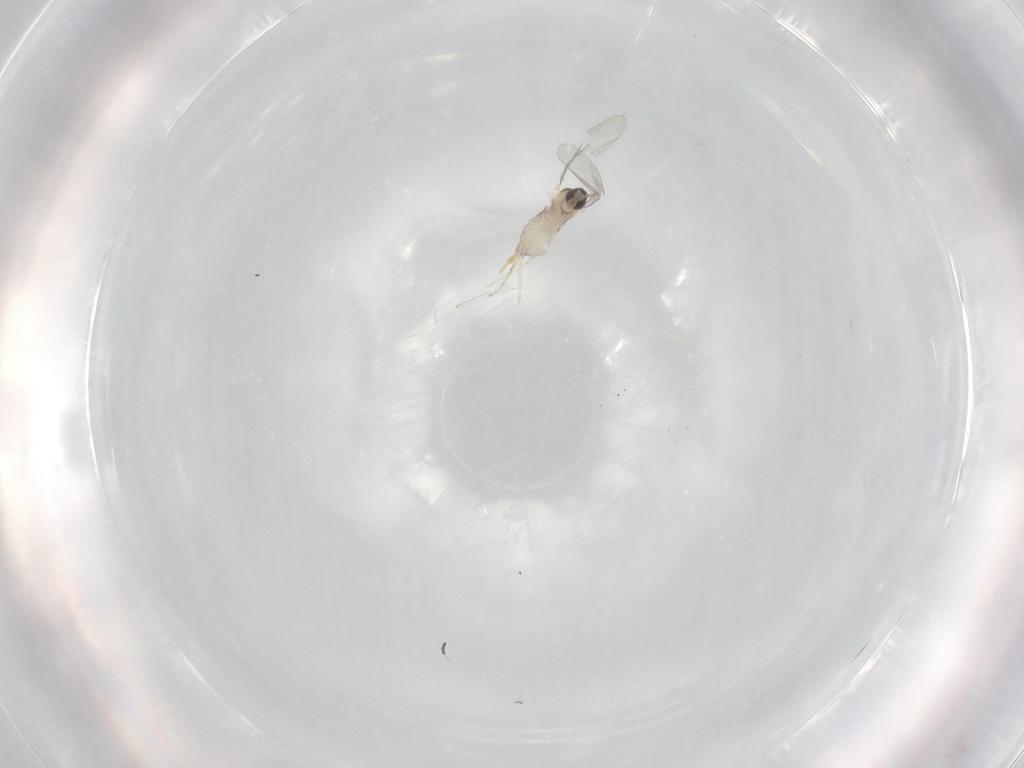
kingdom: Animalia
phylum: Arthropoda
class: Insecta
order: Diptera
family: Cecidomyiidae
